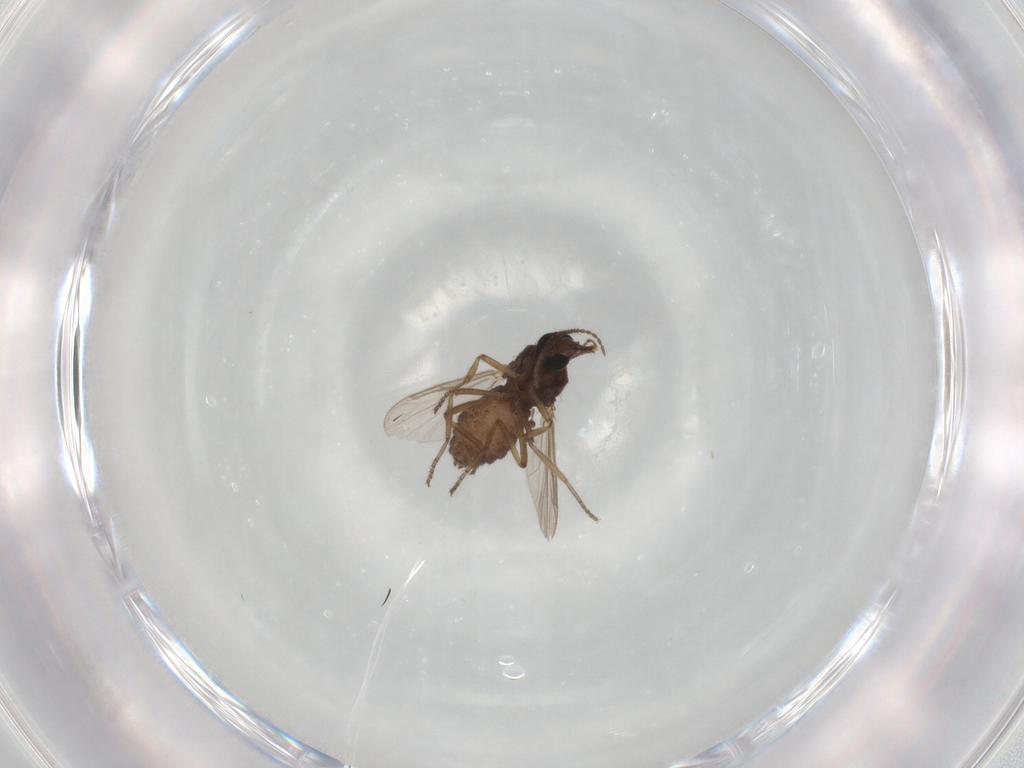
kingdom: Animalia
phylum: Arthropoda
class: Insecta
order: Diptera
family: Ceratopogonidae
